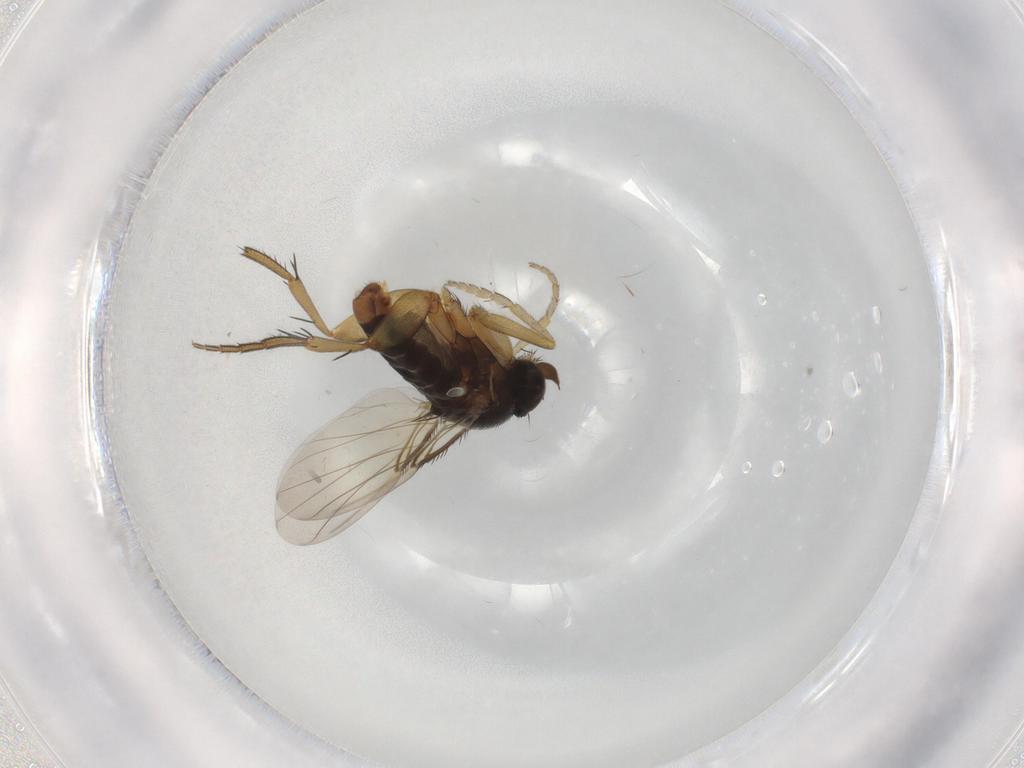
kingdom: Animalia
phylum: Arthropoda
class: Insecta
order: Diptera
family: Phoridae
